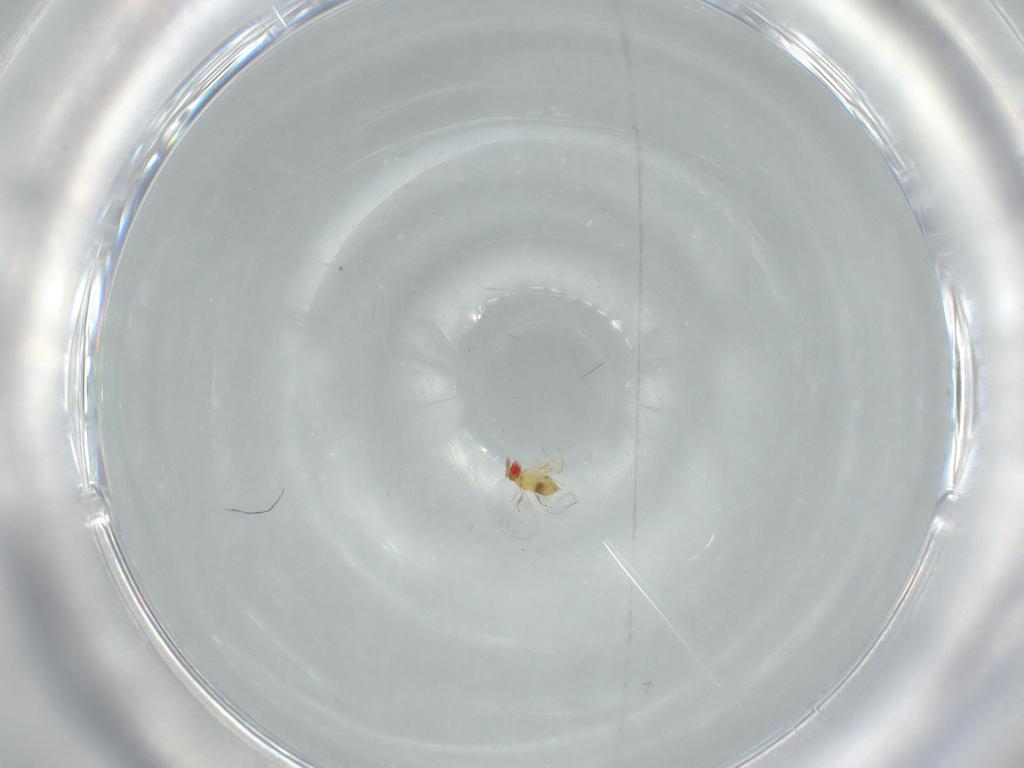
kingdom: Animalia
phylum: Arthropoda
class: Insecta
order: Hymenoptera
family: Trichogrammatidae
